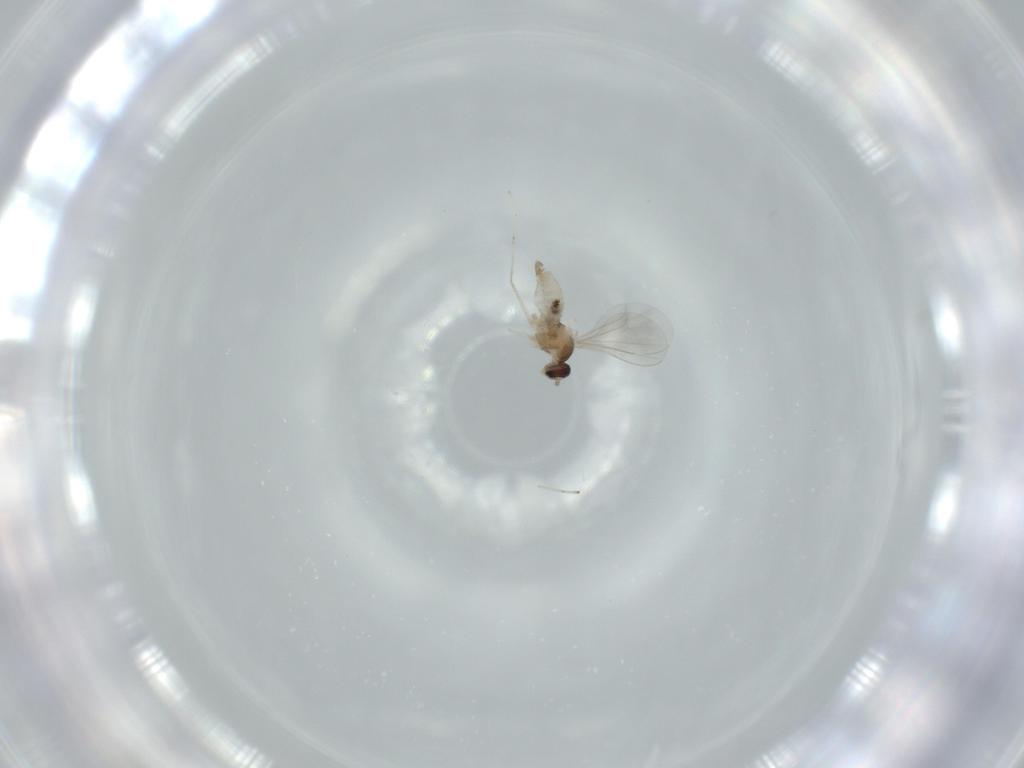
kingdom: Animalia
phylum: Arthropoda
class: Insecta
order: Diptera
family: Cecidomyiidae
